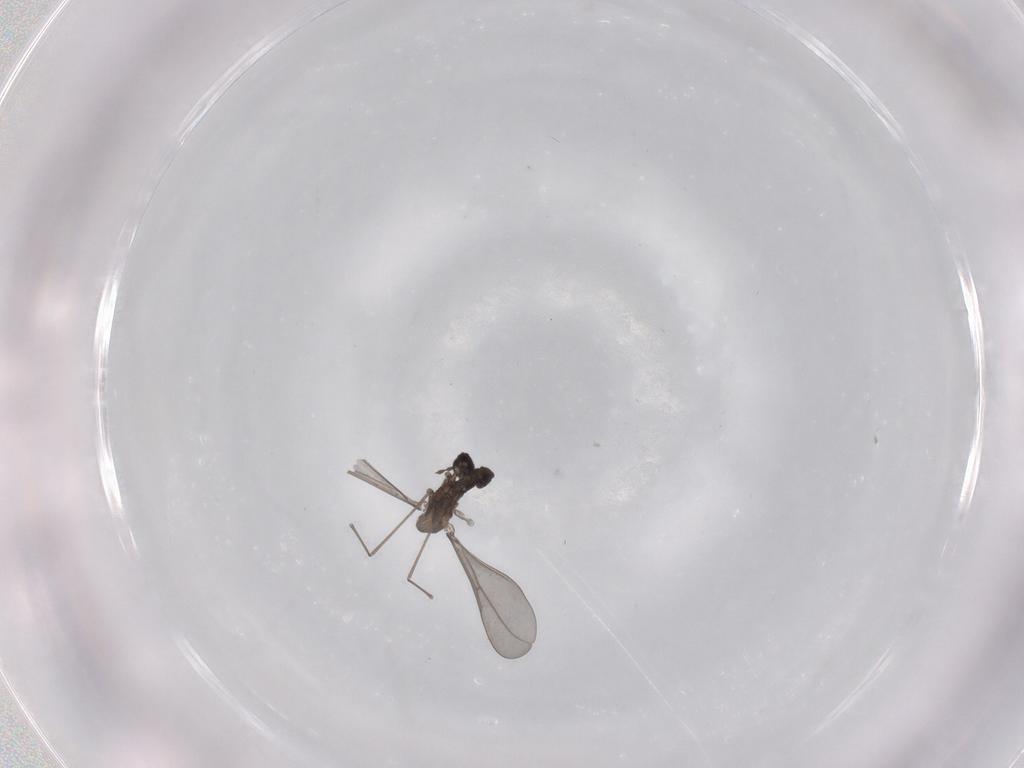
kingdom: Animalia
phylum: Arthropoda
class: Insecta
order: Diptera
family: Cecidomyiidae
